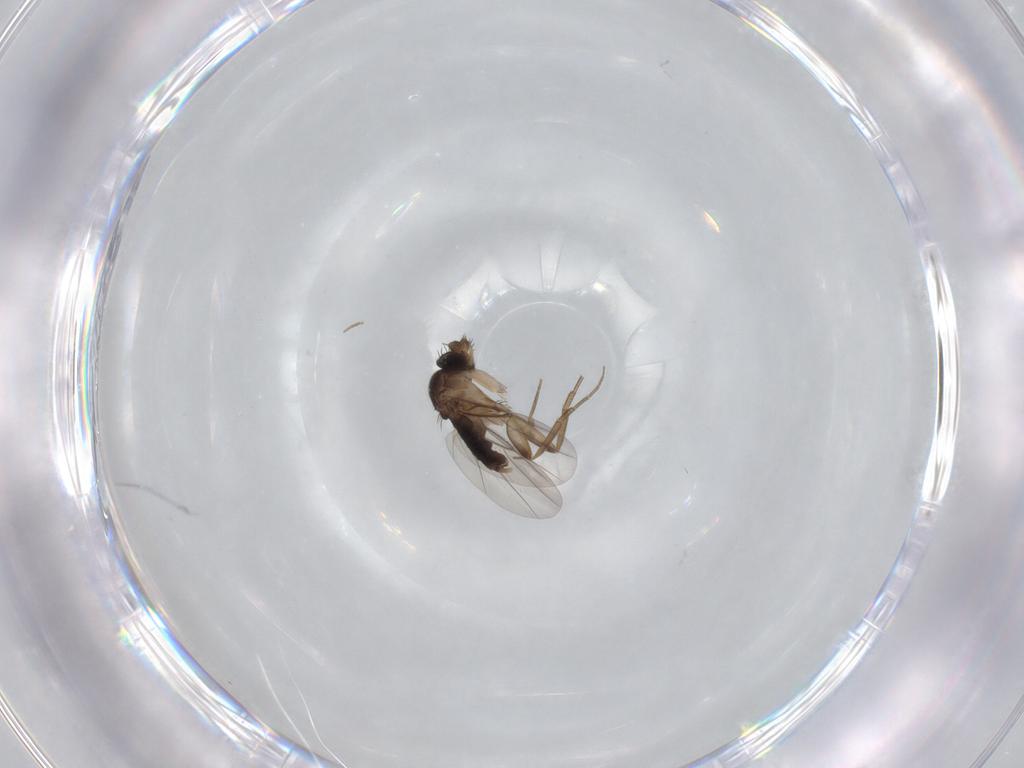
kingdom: Animalia
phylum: Arthropoda
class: Insecta
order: Diptera
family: Phoridae
